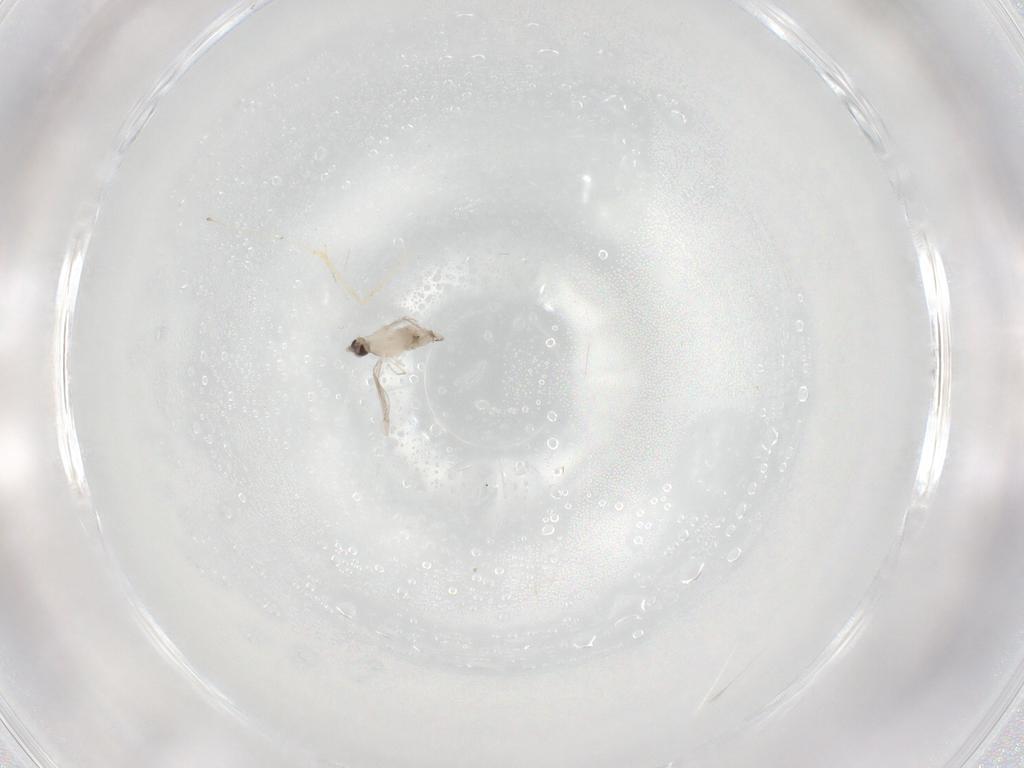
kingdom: Animalia
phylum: Arthropoda
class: Insecta
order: Diptera
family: Cecidomyiidae
